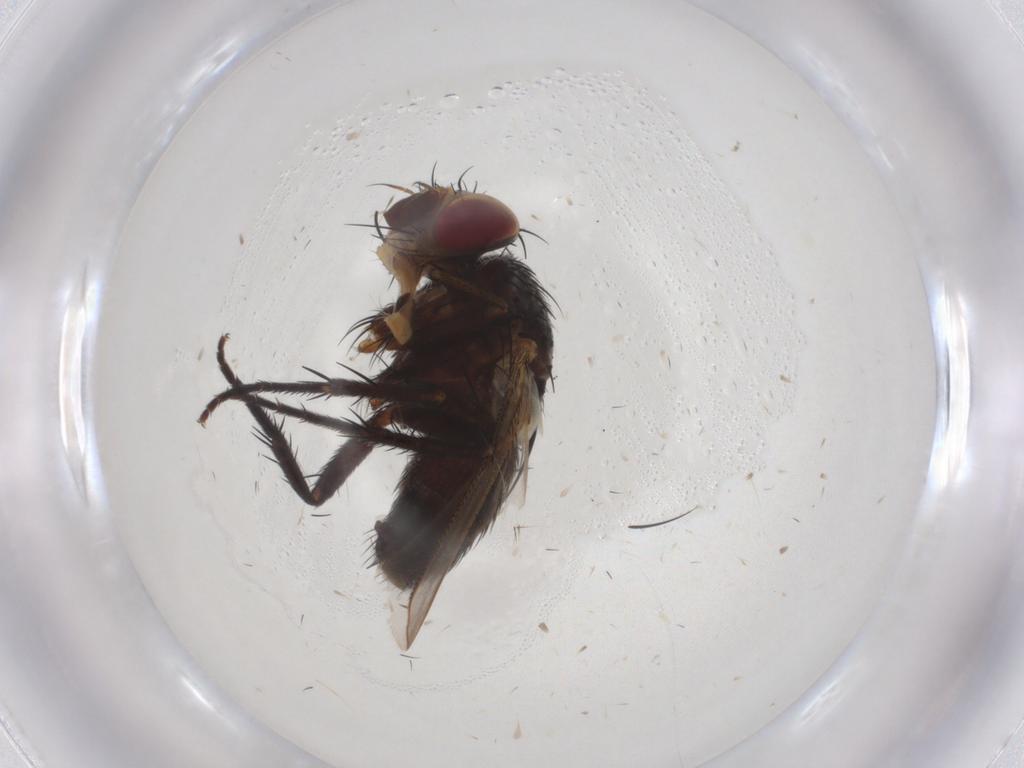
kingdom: Animalia
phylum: Arthropoda
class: Insecta
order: Diptera
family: Tachinidae
